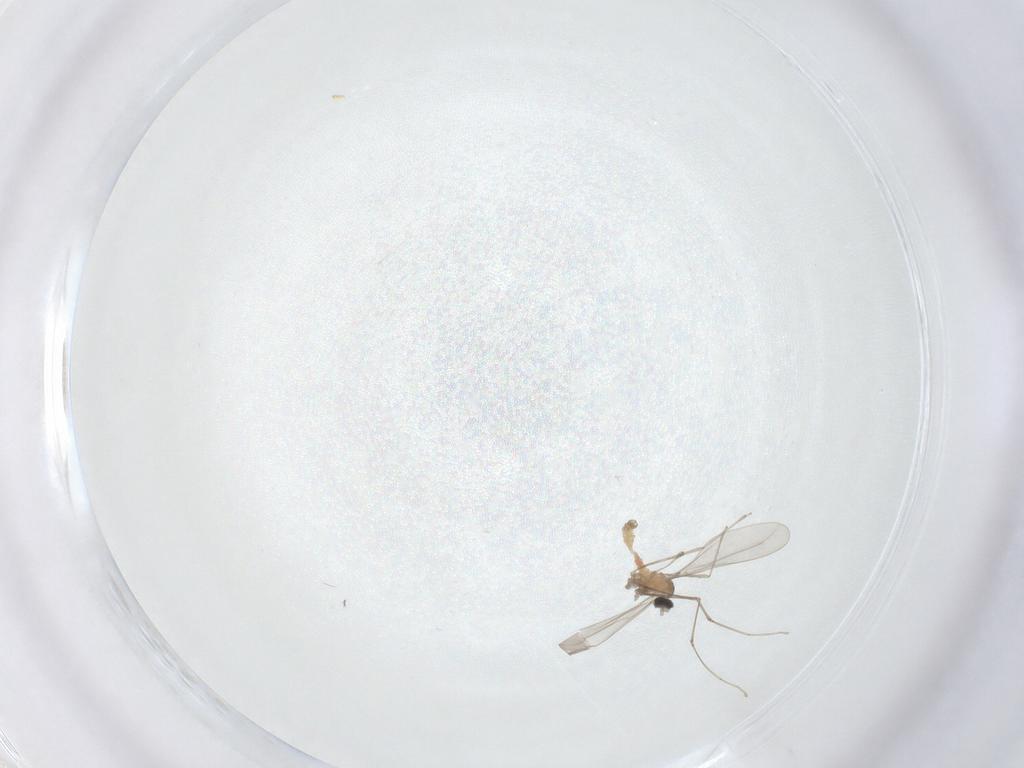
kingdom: Animalia
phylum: Arthropoda
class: Insecta
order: Diptera
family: Cecidomyiidae
